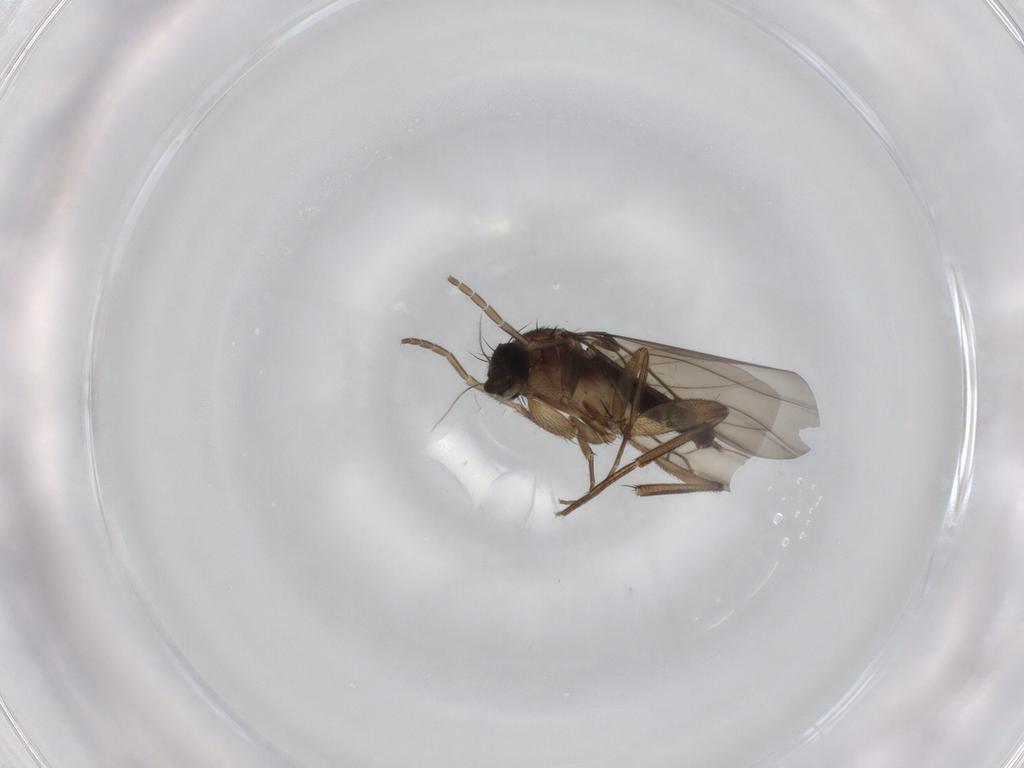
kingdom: Animalia
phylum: Arthropoda
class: Insecta
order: Diptera
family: Phoridae
